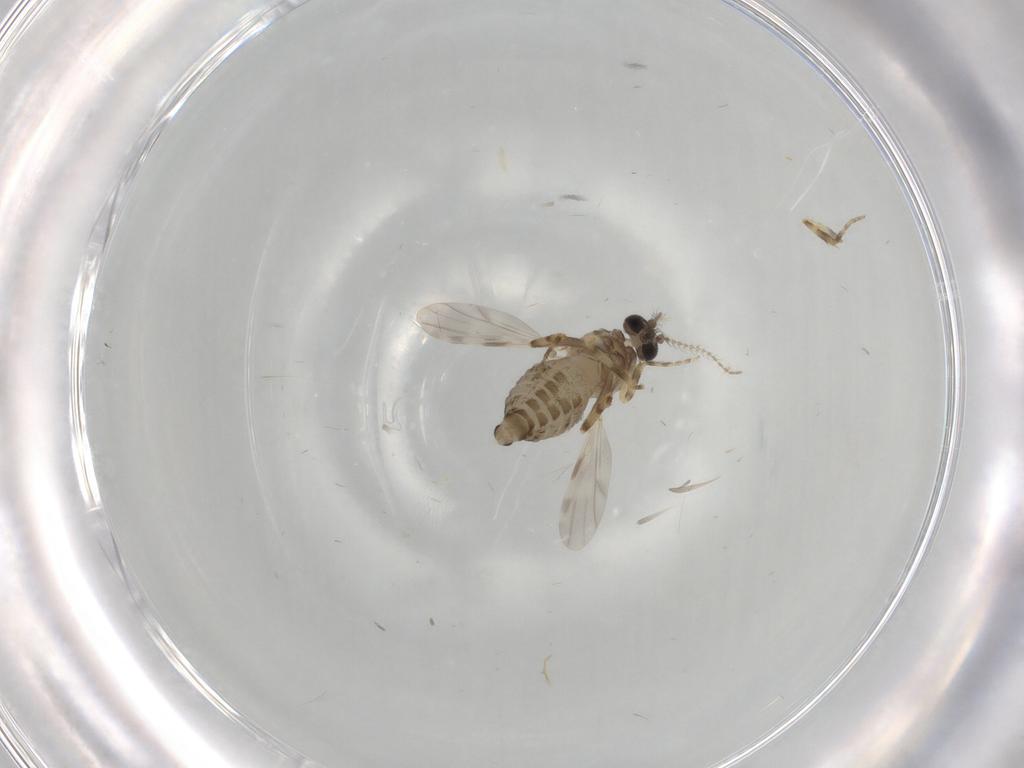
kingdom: Animalia
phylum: Arthropoda
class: Insecta
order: Diptera
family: Ceratopogonidae
